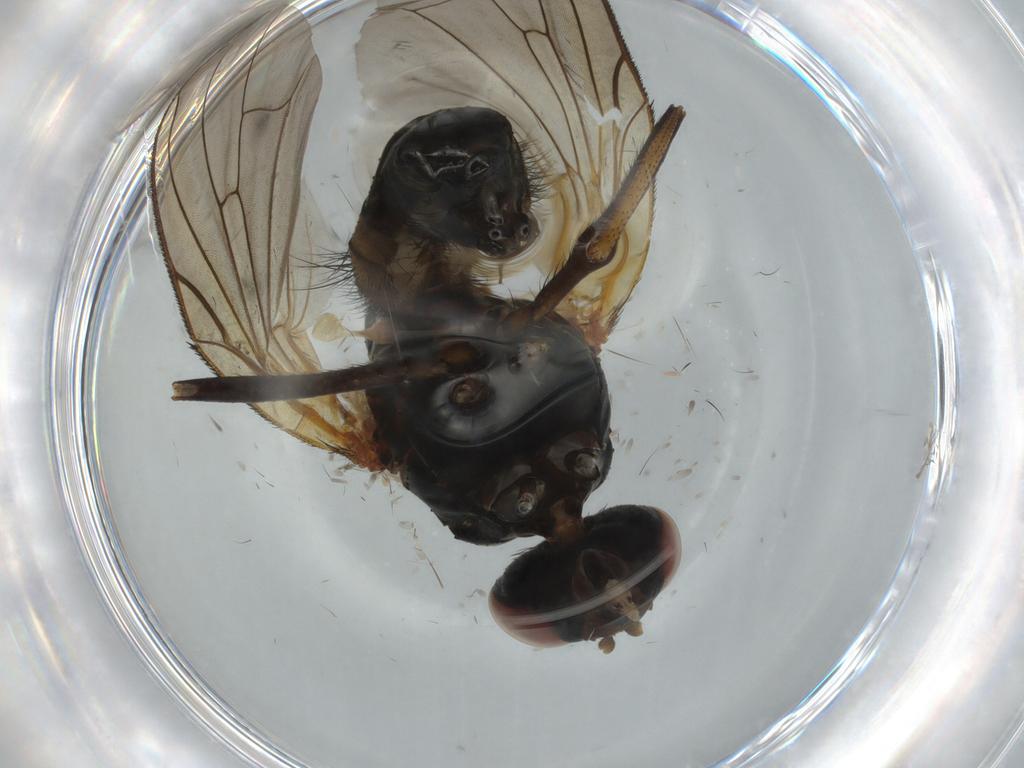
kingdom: Animalia
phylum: Arthropoda
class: Insecta
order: Diptera
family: Anthomyiidae
